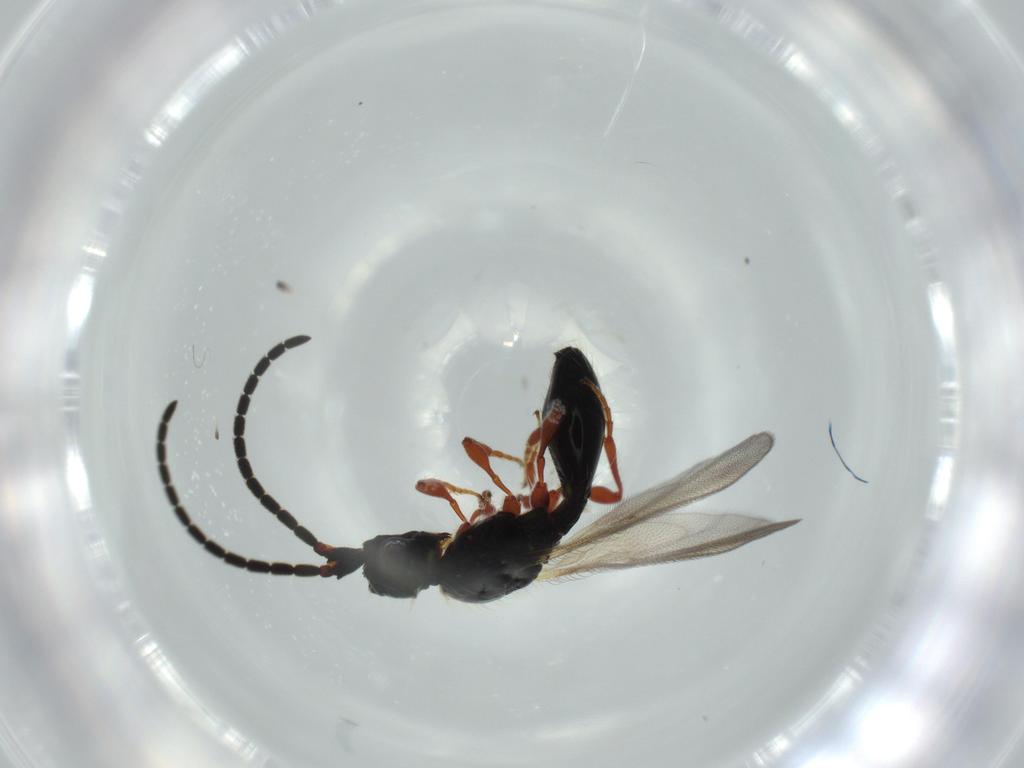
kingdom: Animalia
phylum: Arthropoda
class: Insecta
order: Hymenoptera
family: Diapriidae
